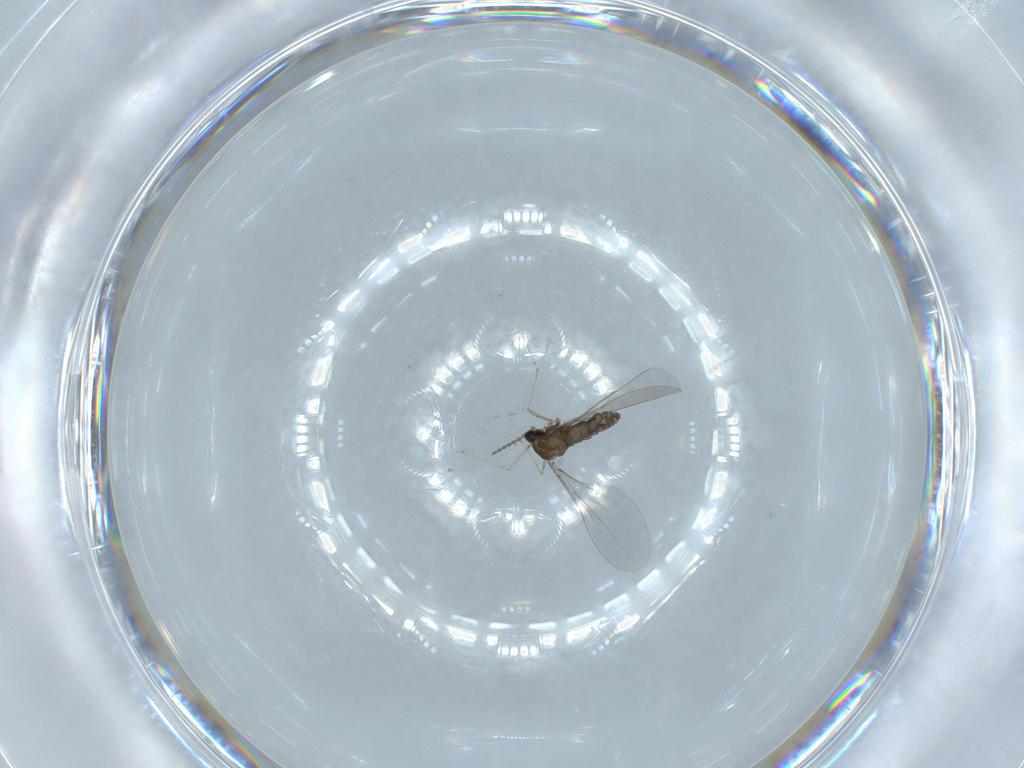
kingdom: Animalia
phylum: Arthropoda
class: Insecta
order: Diptera
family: Cecidomyiidae
